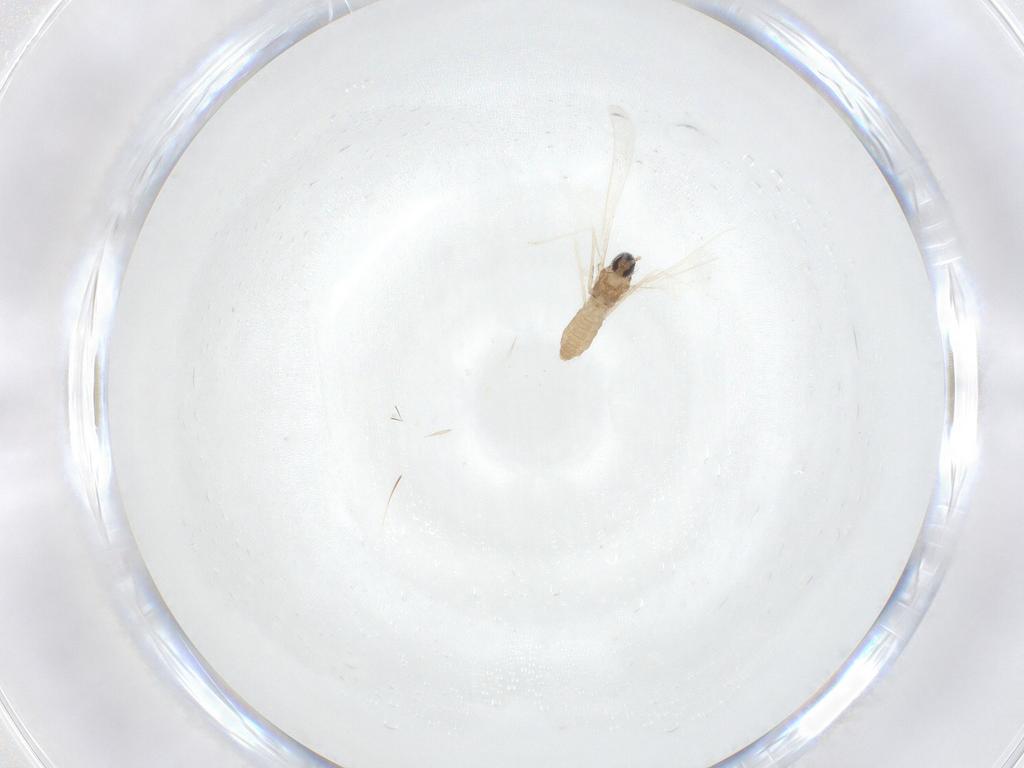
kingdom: Animalia
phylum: Arthropoda
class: Insecta
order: Diptera
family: Cecidomyiidae
